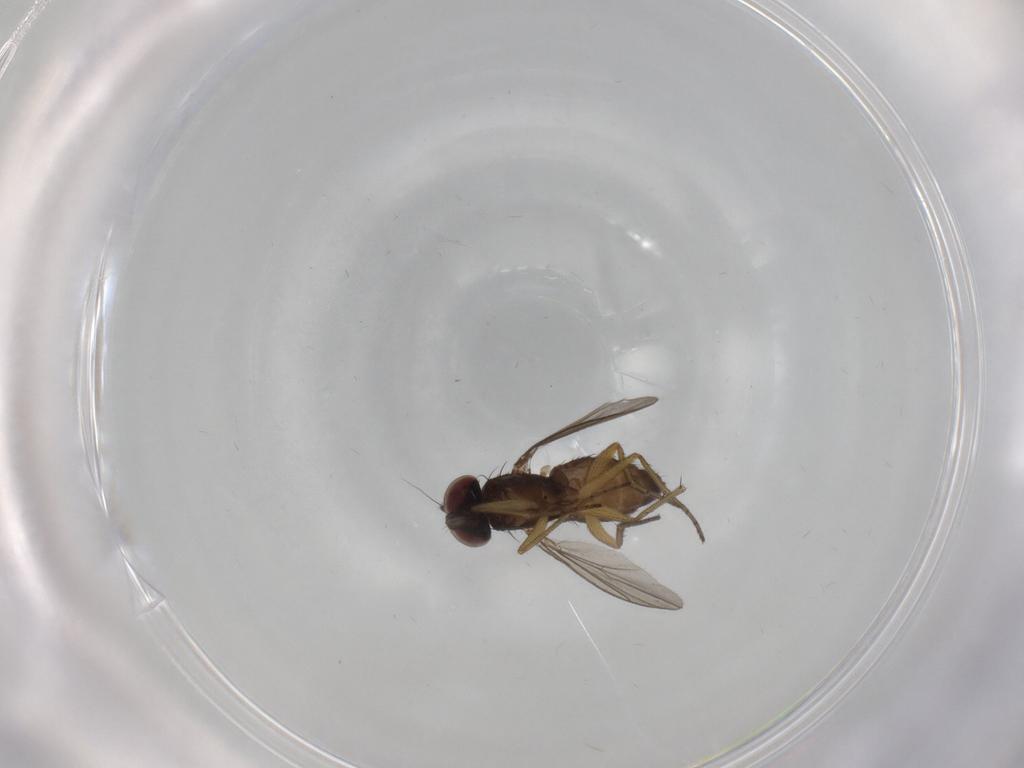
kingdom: Animalia
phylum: Arthropoda
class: Insecta
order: Diptera
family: Dolichopodidae
